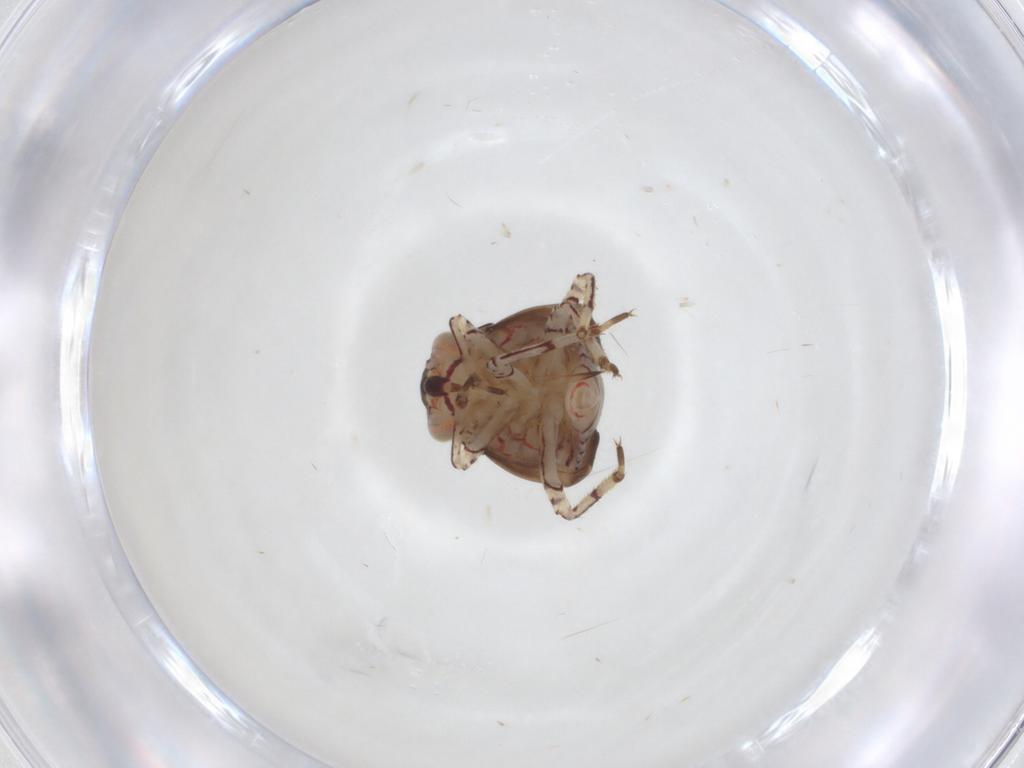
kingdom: Animalia
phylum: Arthropoda
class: Insecta
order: Hemiptera
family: Miridae
